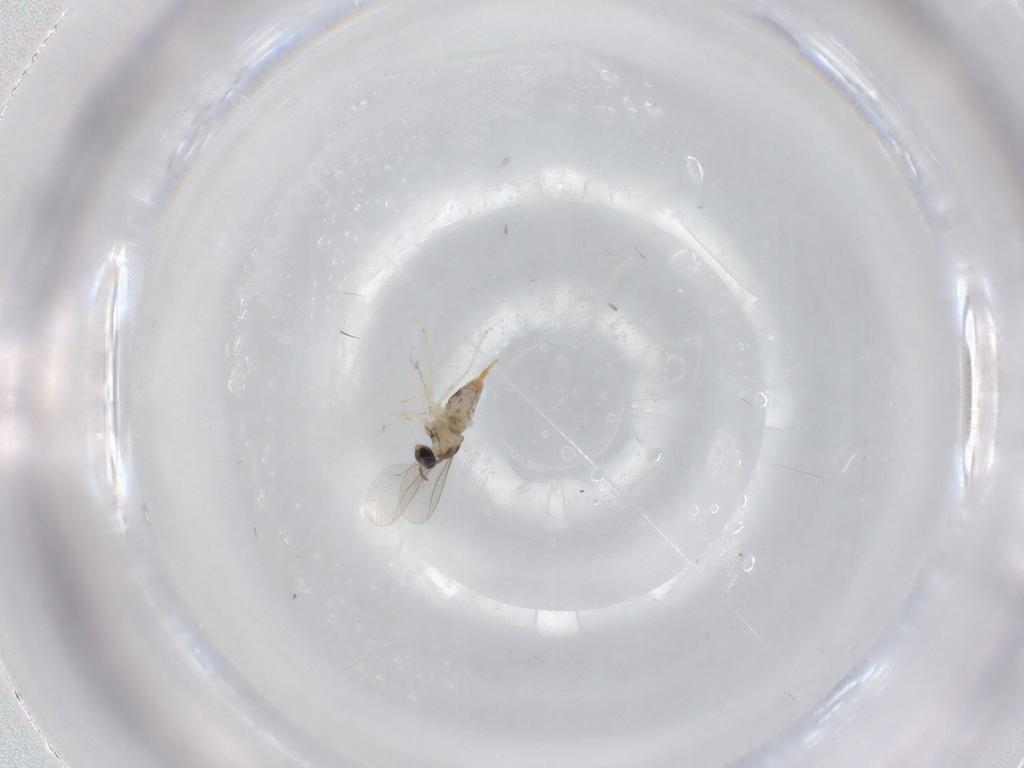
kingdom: Animalia
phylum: Arthropoda
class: Insecta
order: Diptera
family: Cecidomyiidae
